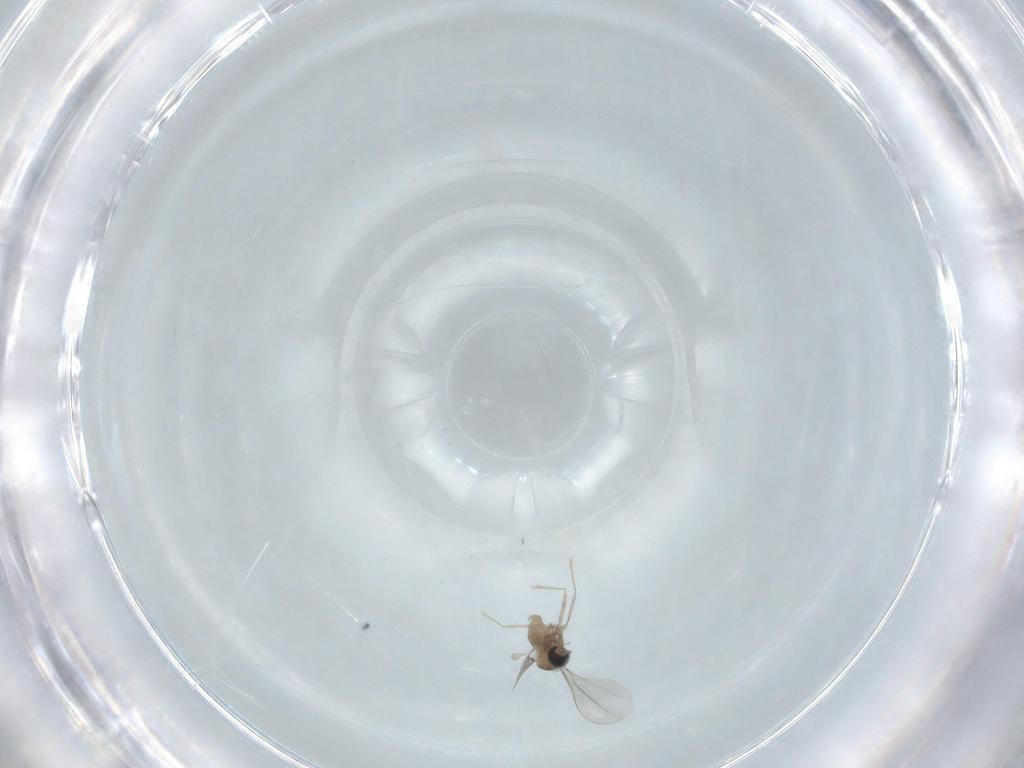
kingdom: Animalia
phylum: Arthropoda
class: Insecta
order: Diptera
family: Cecidomyiidae
